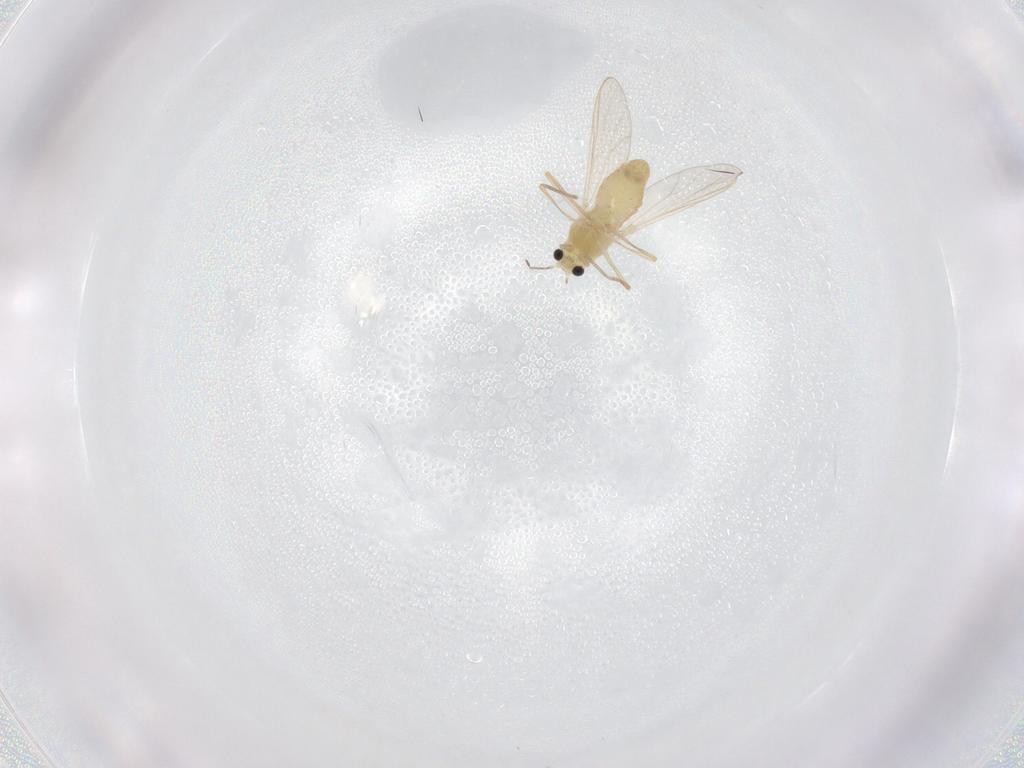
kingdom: Animalia
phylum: Arthropoda
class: Insecta
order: Diptera
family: Chironomidae
